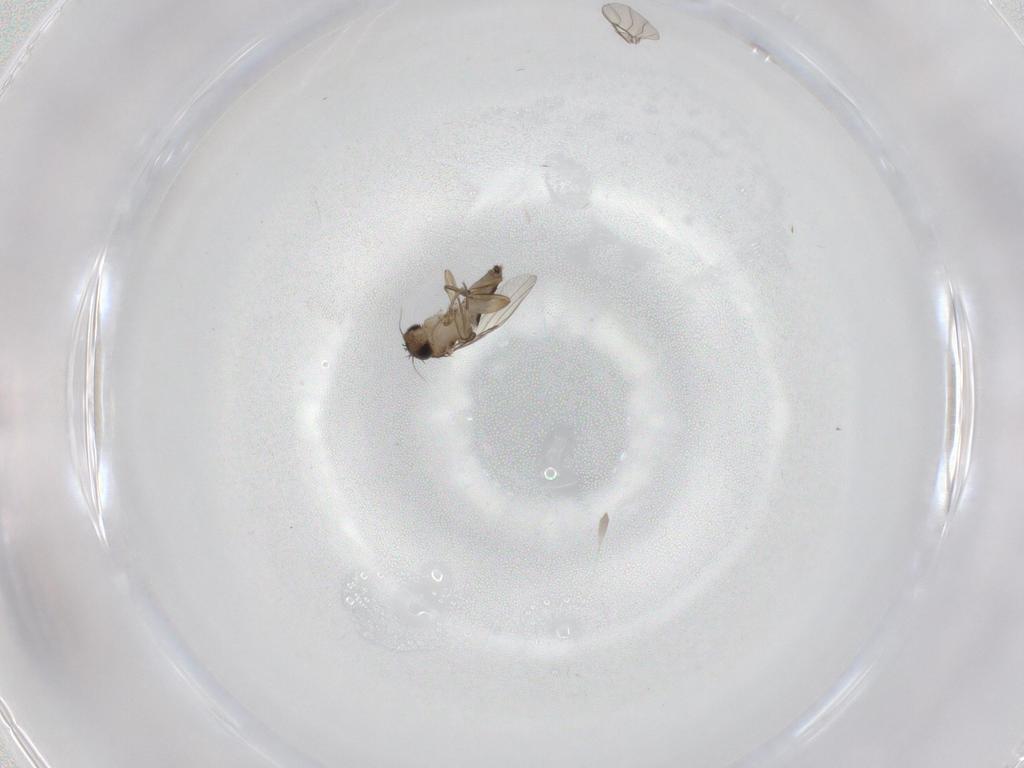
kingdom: Animalia
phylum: Arthropoda
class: Insecta
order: Diptera
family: Phoridae
